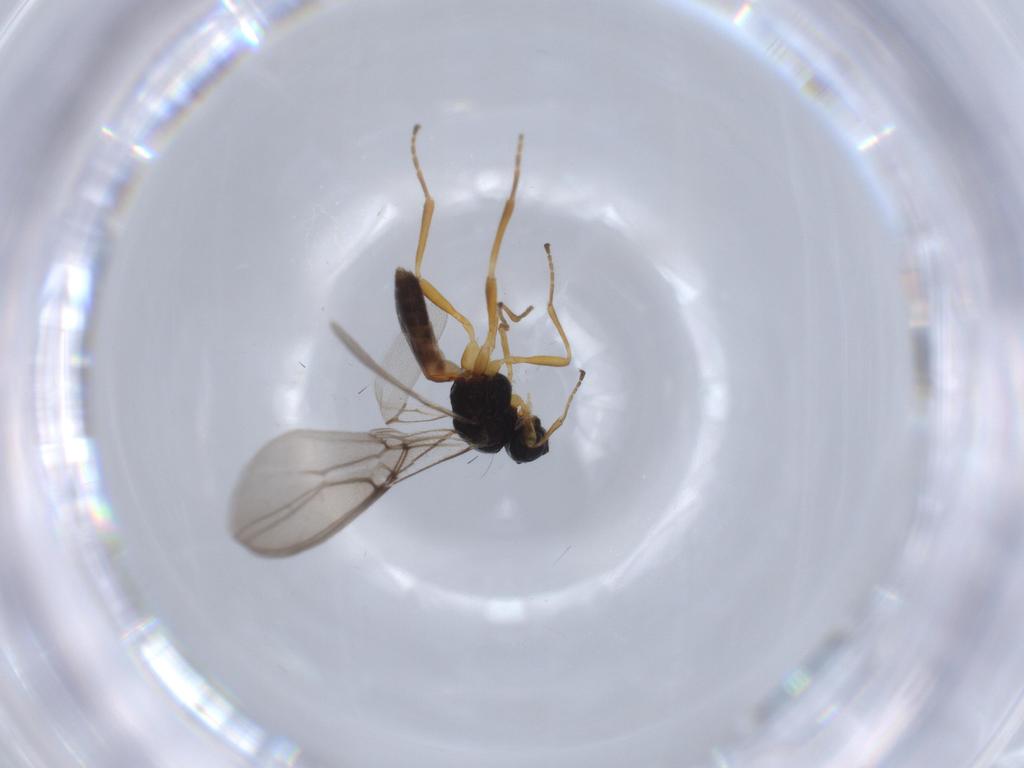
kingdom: Animalia
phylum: Arthropoda
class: Insecta
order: Hymenoptera
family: Braconidae
